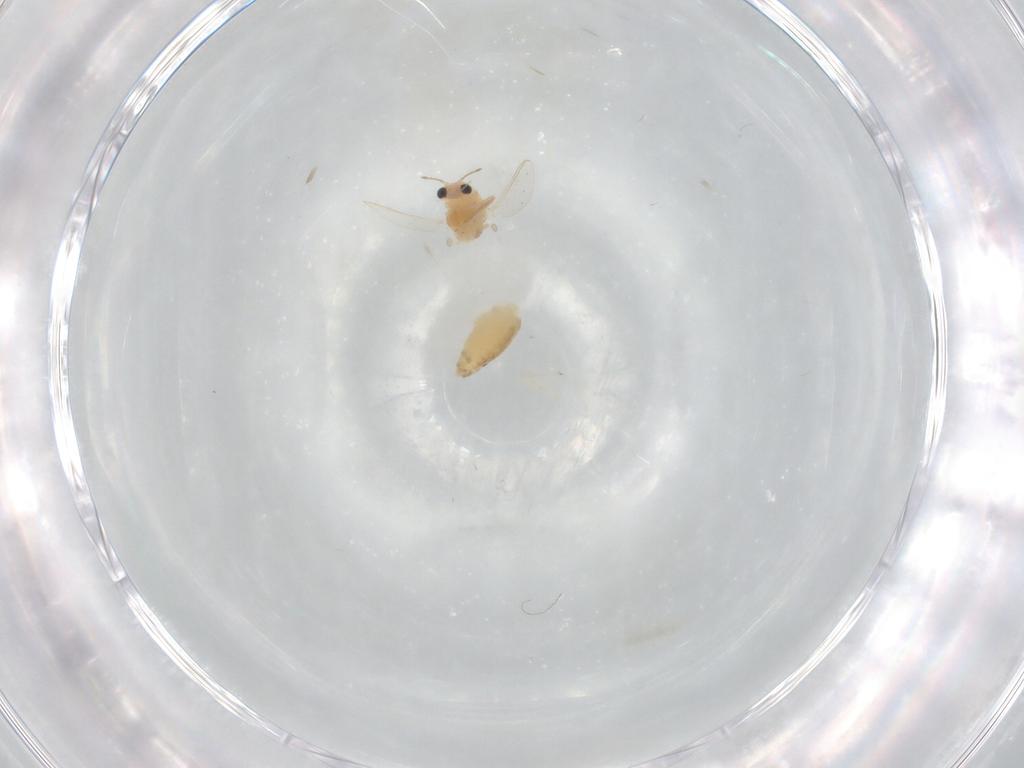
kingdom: Animalia
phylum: Arthropoda
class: Insecta
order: Diptera
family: Chironomidae
